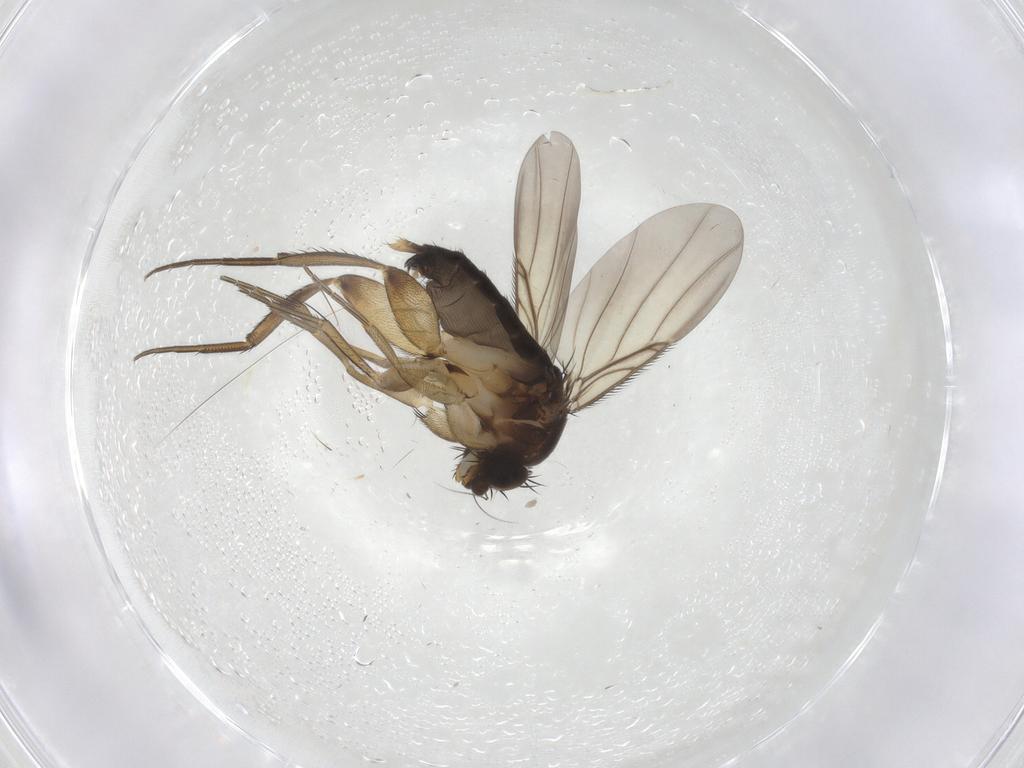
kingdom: Animalia
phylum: Arthropoda
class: Insecta
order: Diptera
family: Phoridae
